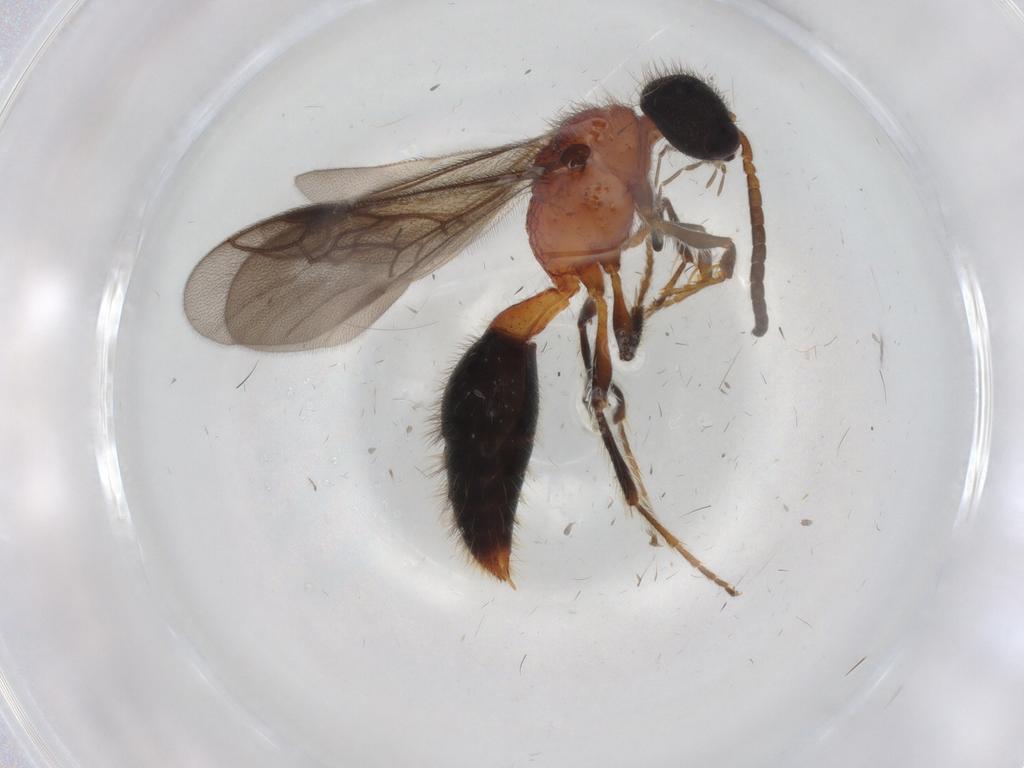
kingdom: Animalia
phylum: Arthropoda
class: Insecta
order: Hymenoptera
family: Mutillidae
